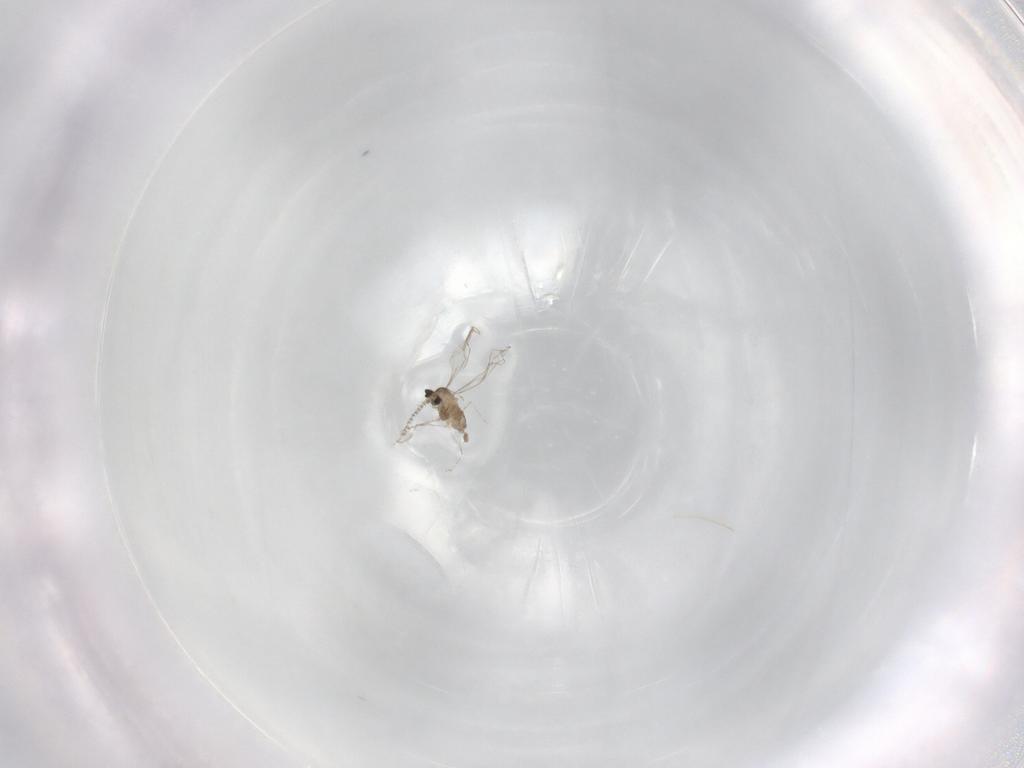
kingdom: Animalia
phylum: Arthropoda
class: Insecta
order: Diptera
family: Cecidomyiidae
